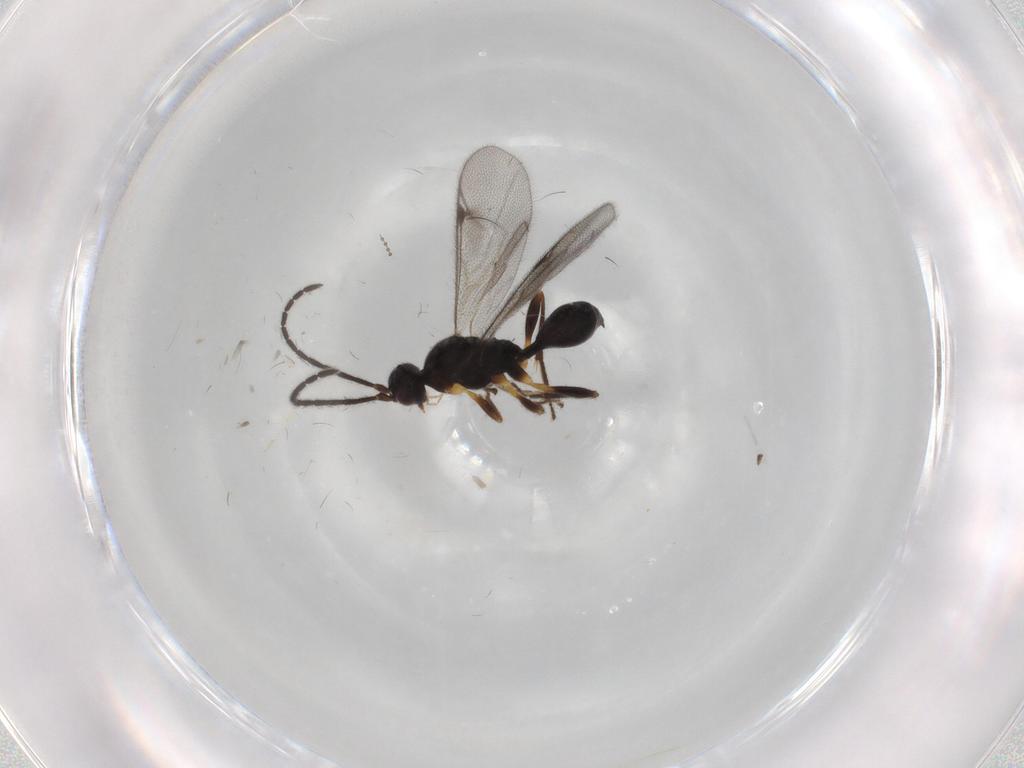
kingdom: Animalia
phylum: Arthropoda
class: Insecta
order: Hymenoptera
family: Proctotrupidae
